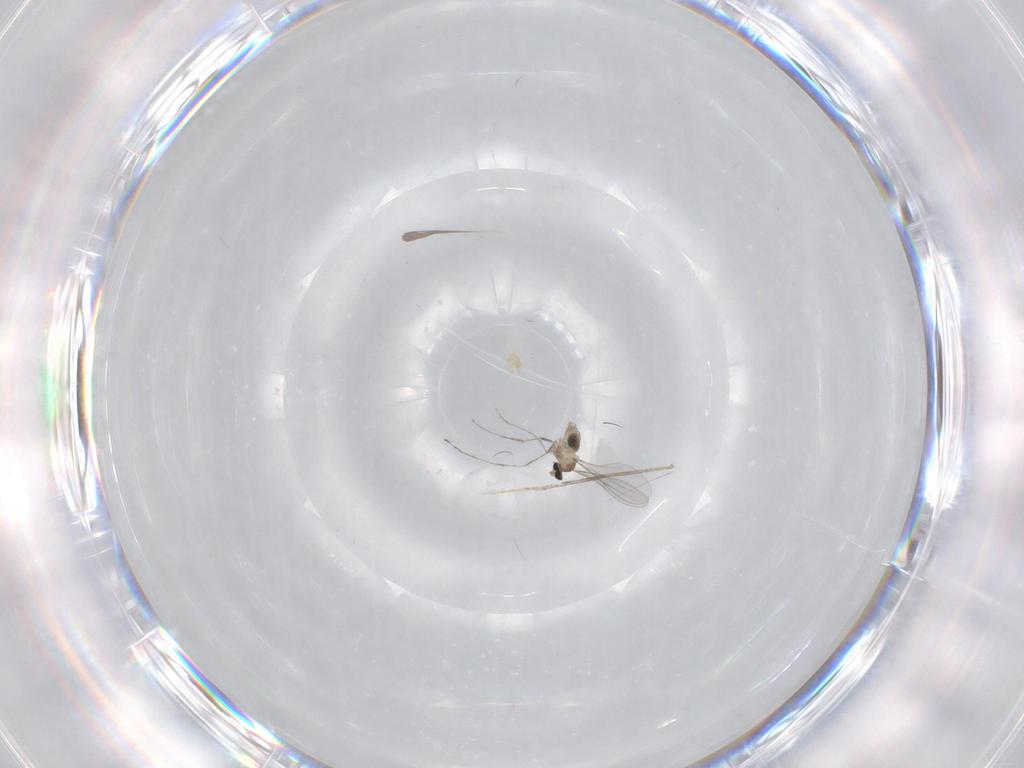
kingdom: Animalia
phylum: Arthropoda
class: Insecta
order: Diptera
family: Cecidomyiidae
